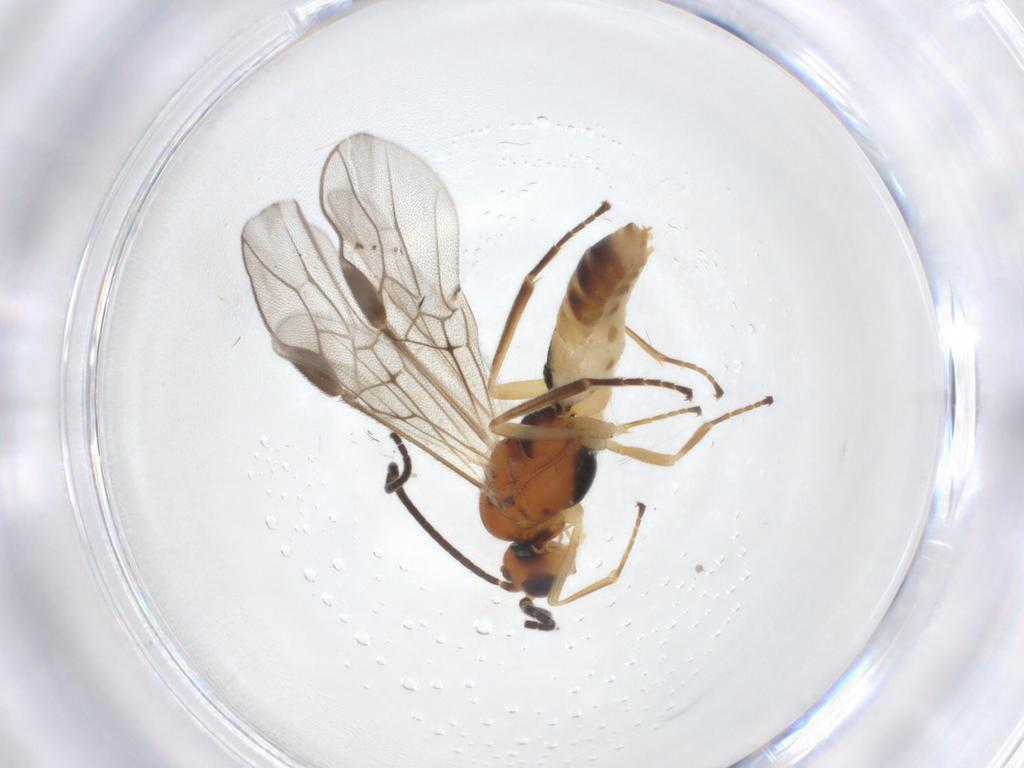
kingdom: Animalia
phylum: Arthropoda
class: Insecta
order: Hymenoptera
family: Braconidae
